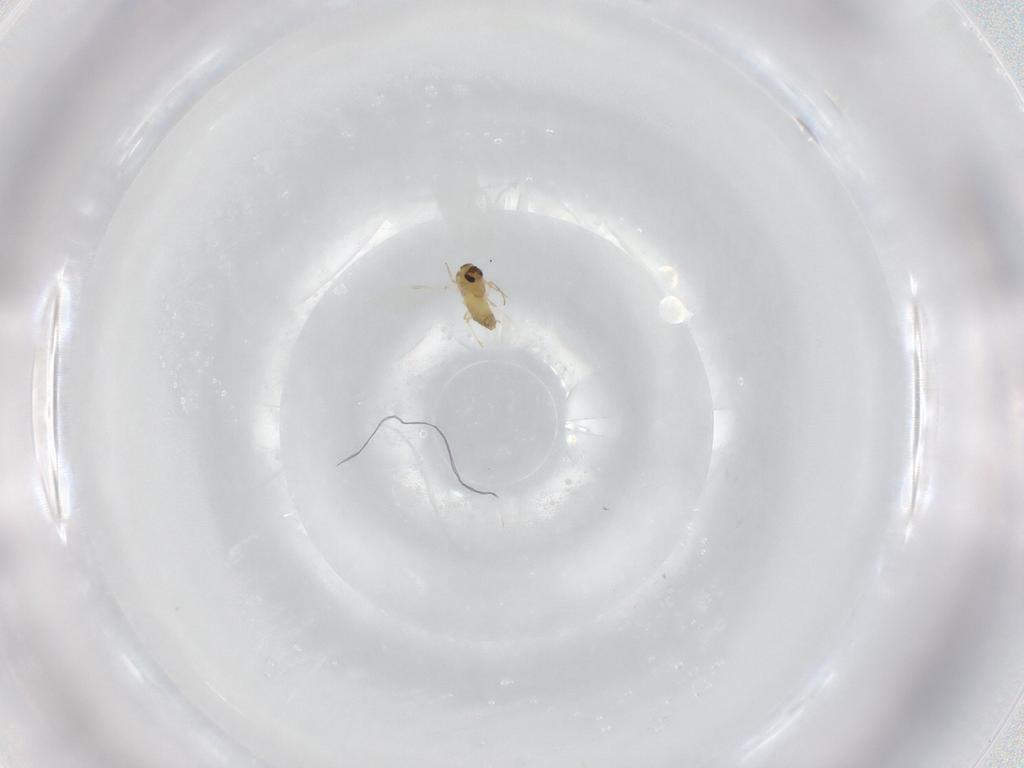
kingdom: Animalia
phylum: Arthropoda
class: Insecta
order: Diptera
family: Chironomidae
